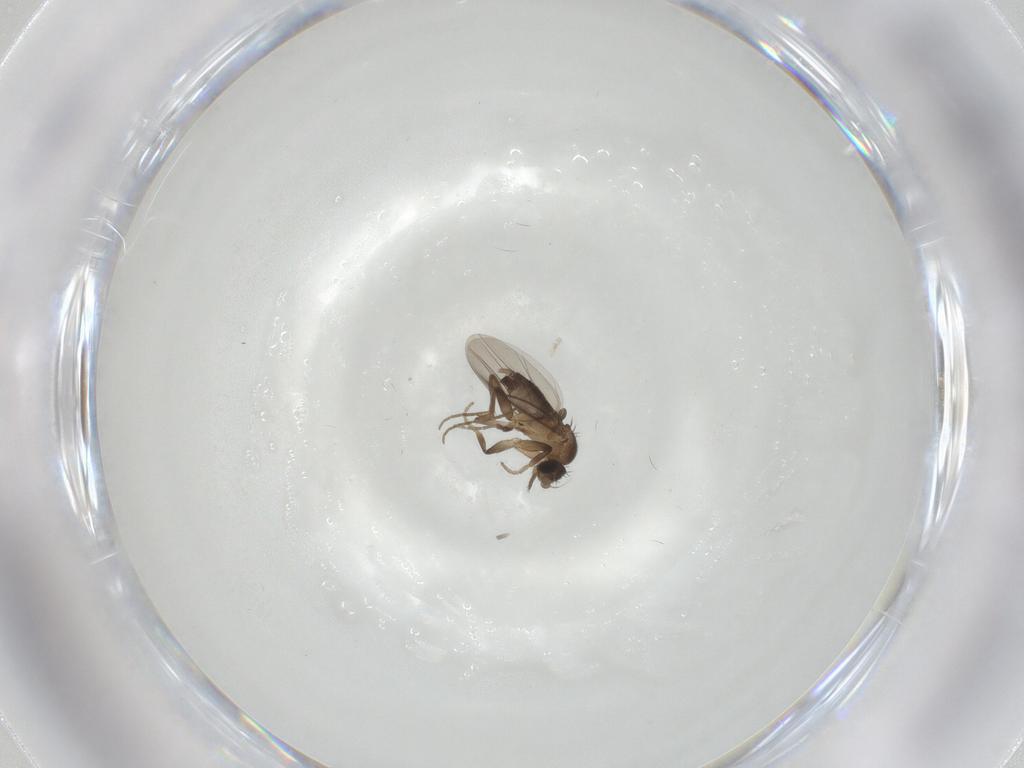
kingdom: Animalia
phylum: Arthropoda
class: Insecta
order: Diptera
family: Phoridae
